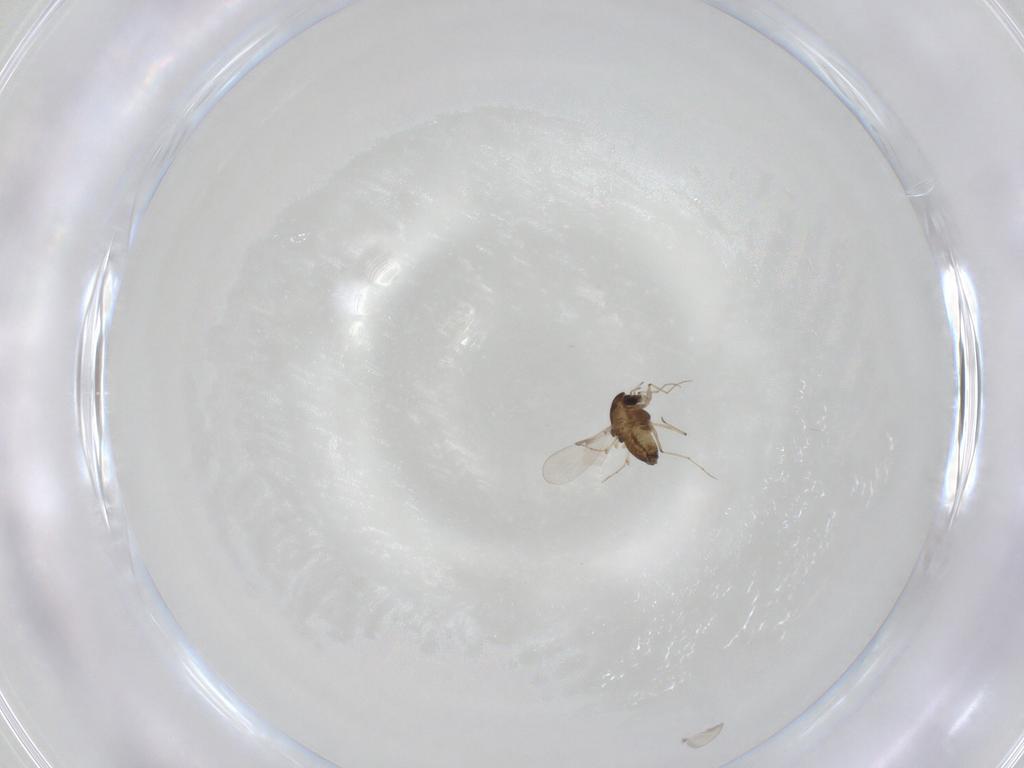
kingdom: Animalia
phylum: Arthropoda
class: Insecta
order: Diptera
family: Chironomidae
